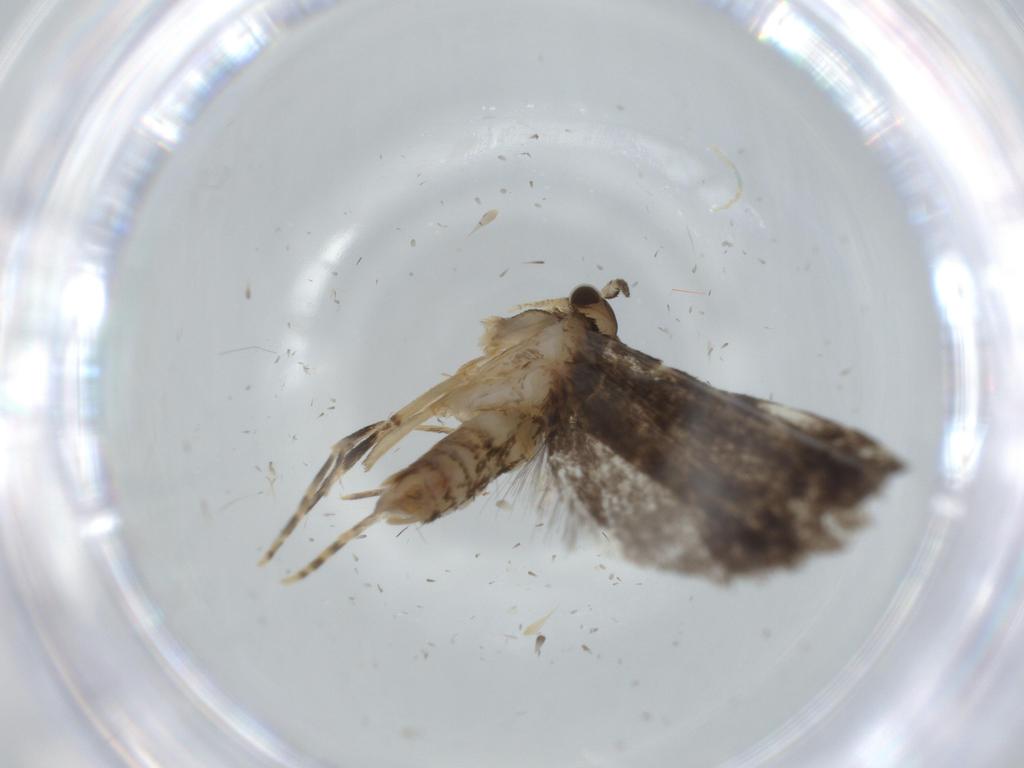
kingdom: Animalia
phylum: Arthropoda
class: Insecta
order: Lepidoptera
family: Tineidae
